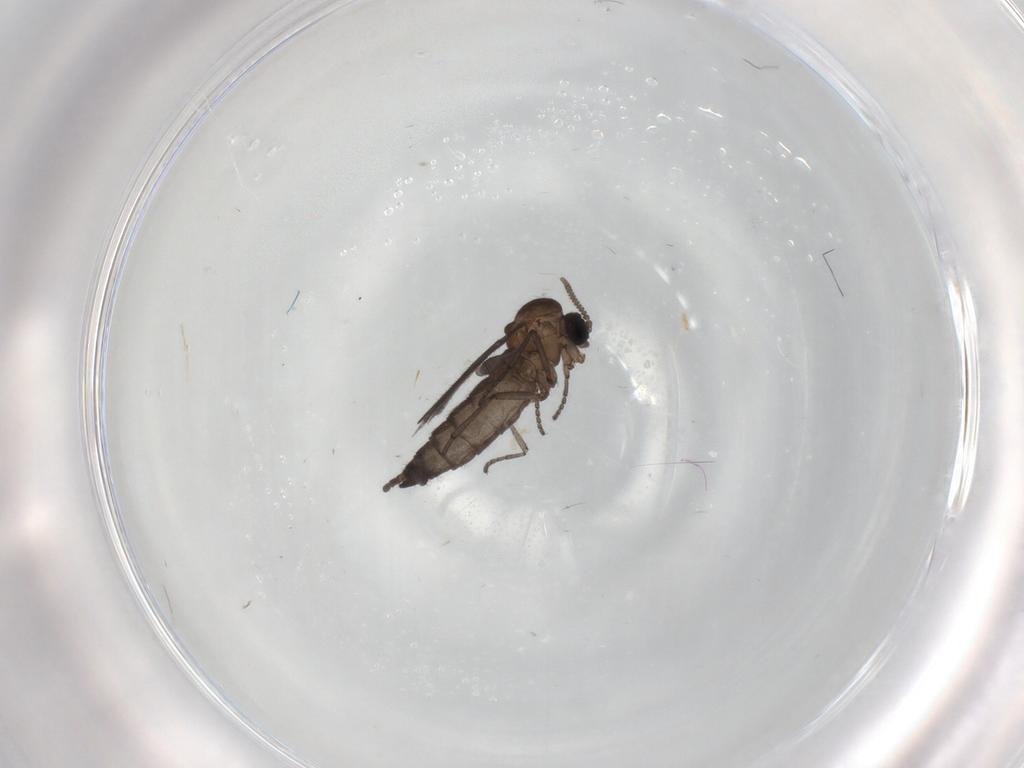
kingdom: Animalia
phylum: Arthropoda
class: Insecta
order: Diptera
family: Sciaridae
